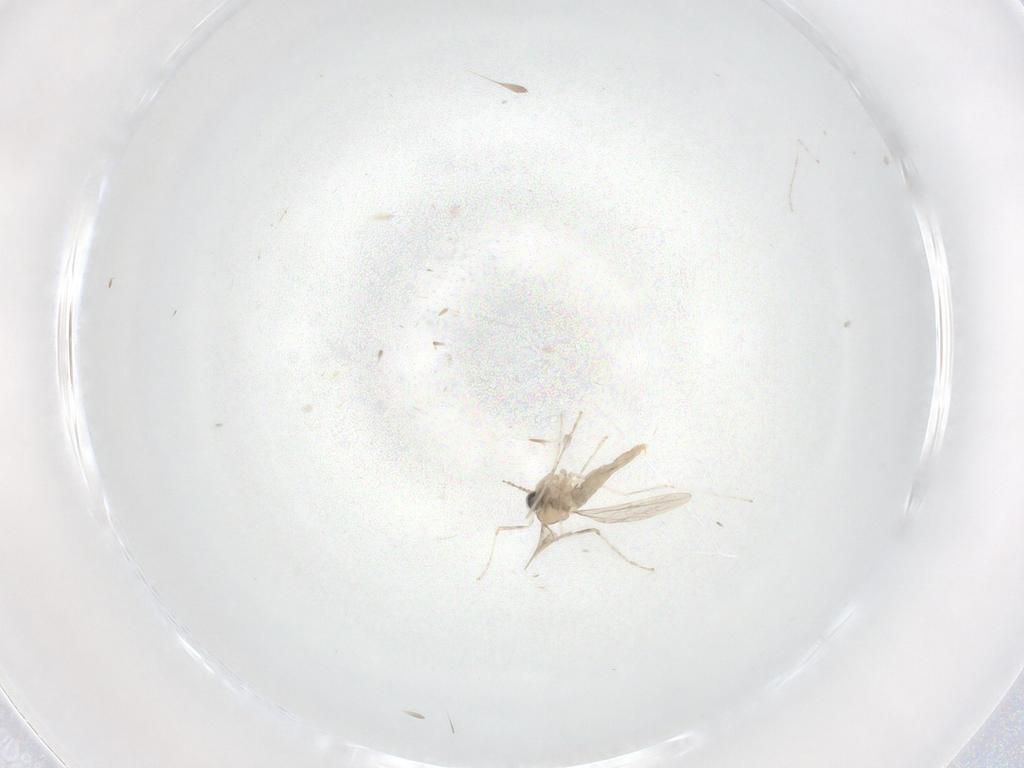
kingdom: Animalia
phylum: Arthropoda
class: Insecta
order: Diptera
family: Cecidomyiidae
